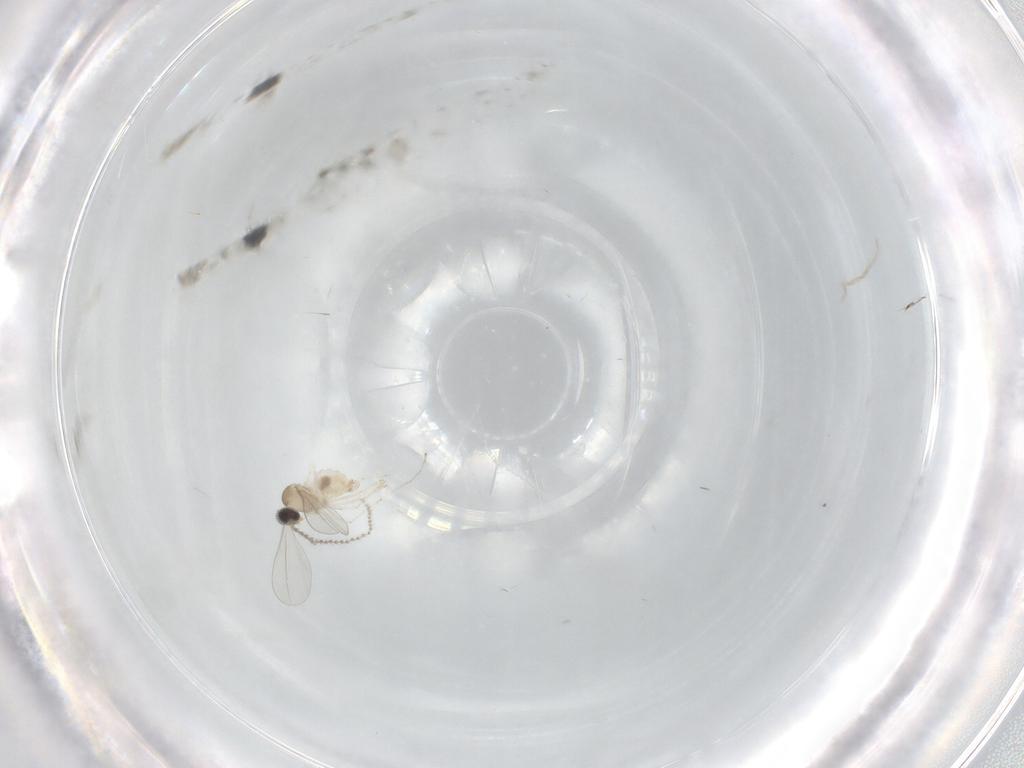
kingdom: Animalia
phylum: Arthropoda
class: Insecta
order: Diptera
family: Cecidomyiidae
